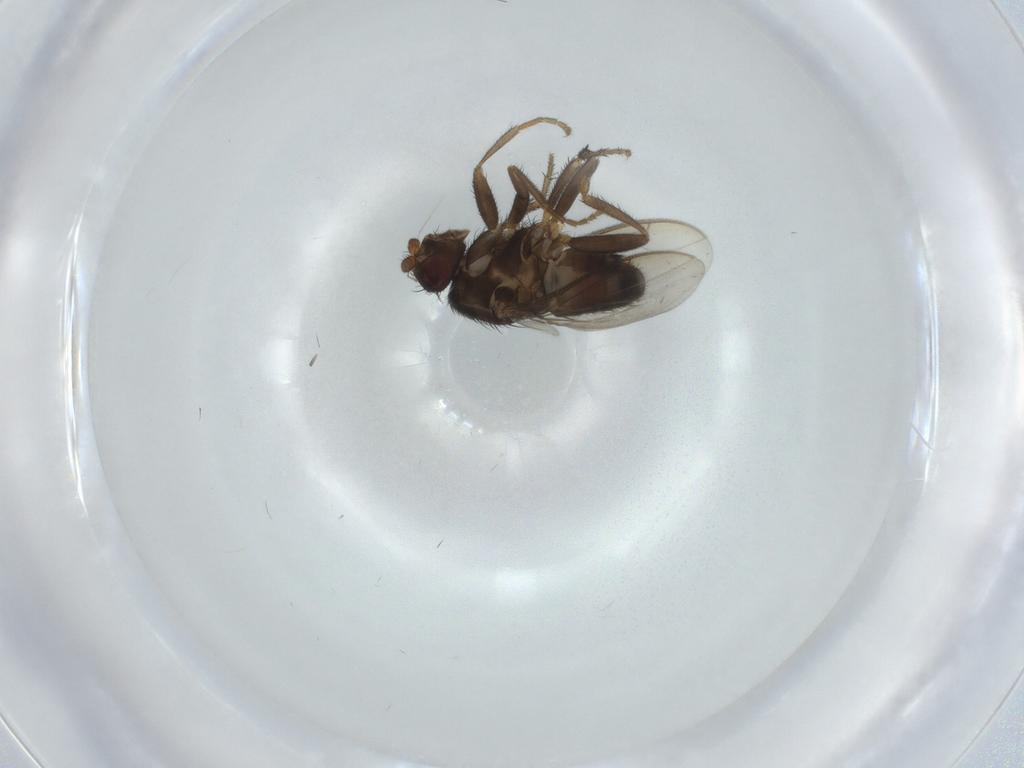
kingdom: Animalia
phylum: Arthropoda
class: Insecta
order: Diptera
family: Sphaeroceridae
